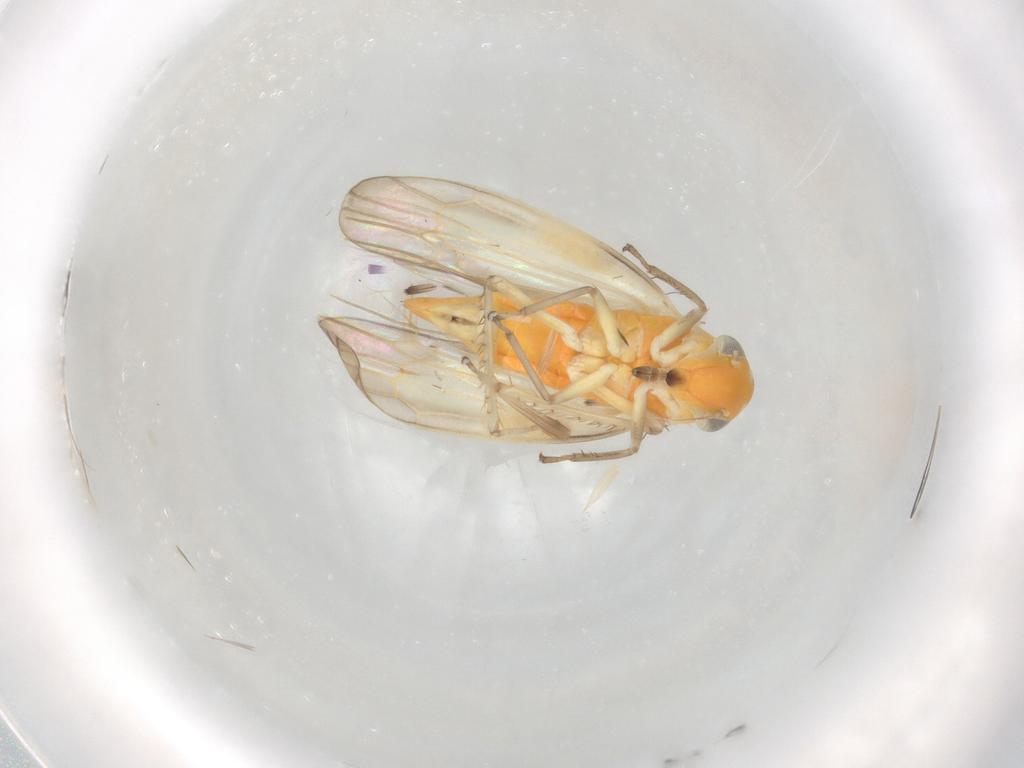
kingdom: Animalia
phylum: Arthropoda
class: Insecta
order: Hemiptera
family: Cicadellidae
